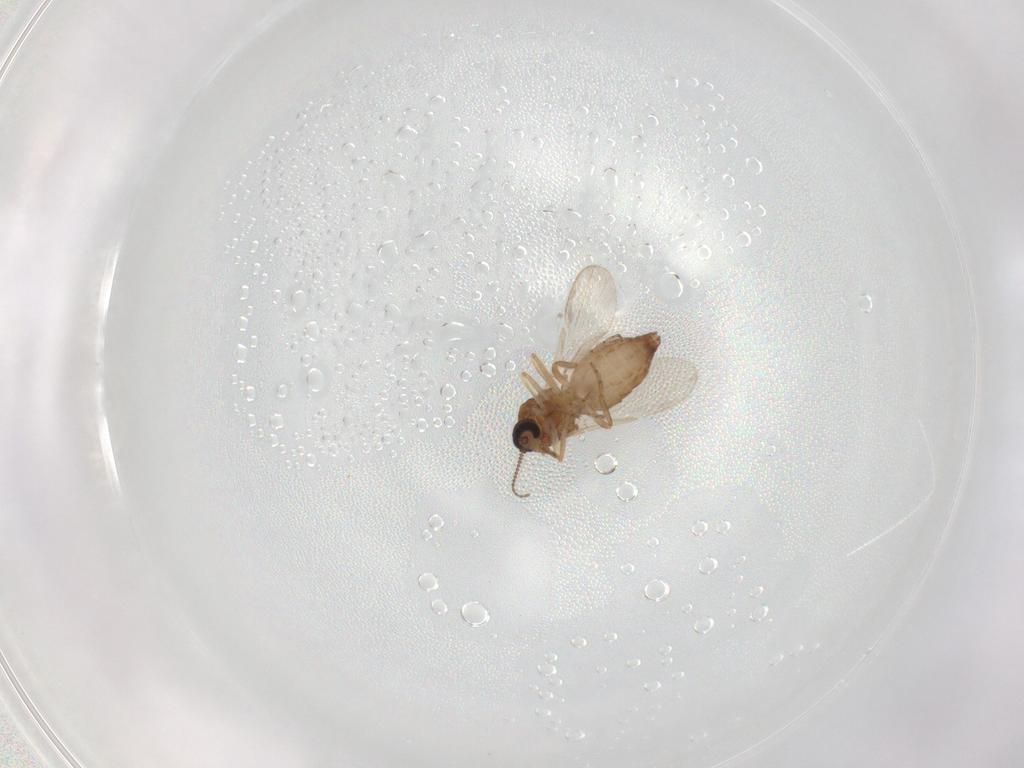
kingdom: Animalia
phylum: Arthropoda
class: Insecta
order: Diptera
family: Ceratopogonidae
